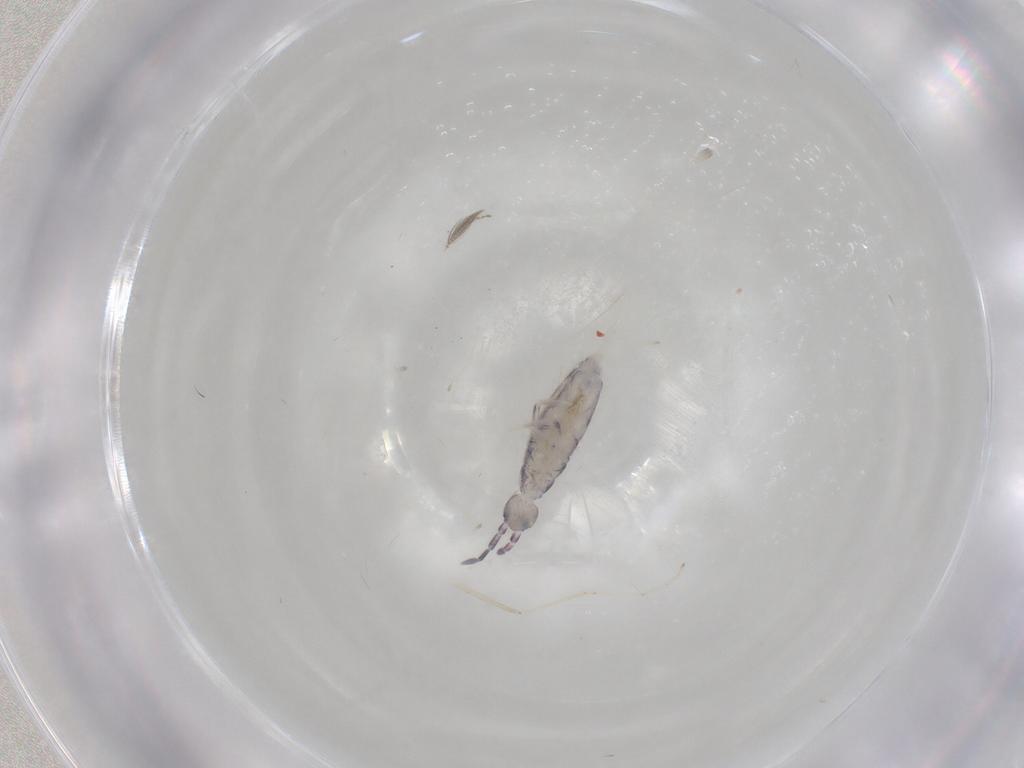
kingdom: Animalia
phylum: Arthropoda
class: Collembola
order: Entomobryomorpha
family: Entomobryidae
